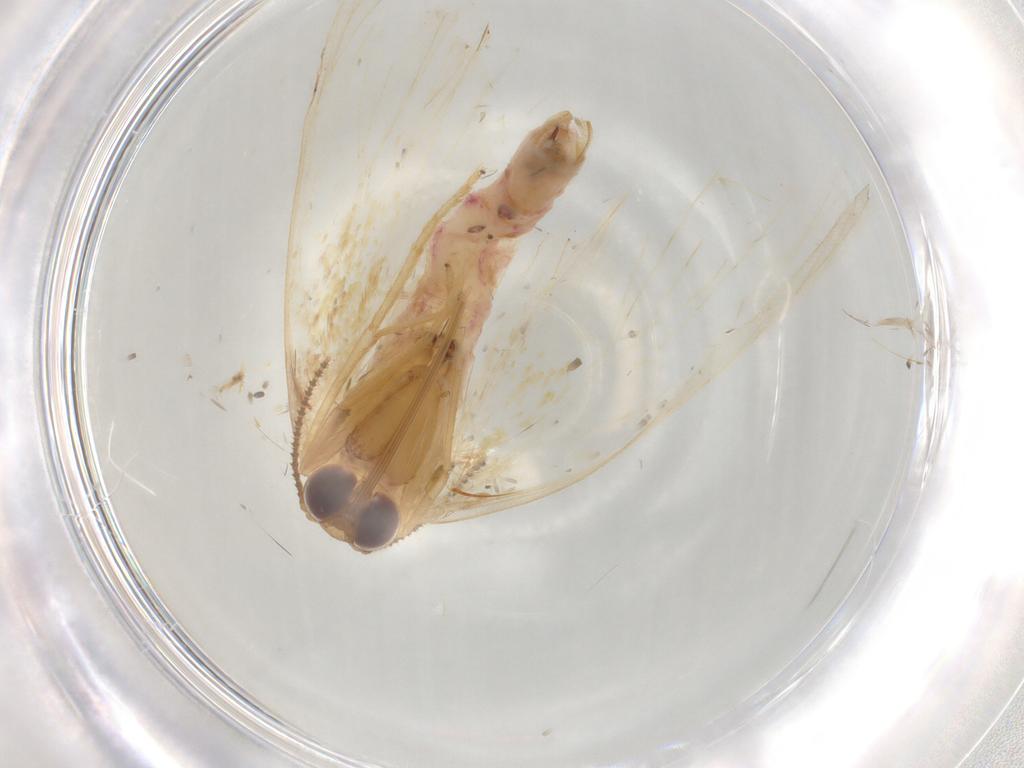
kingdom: Animalia
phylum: Arthropoda
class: Insecta
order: Lepidoptera
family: Erebidae
